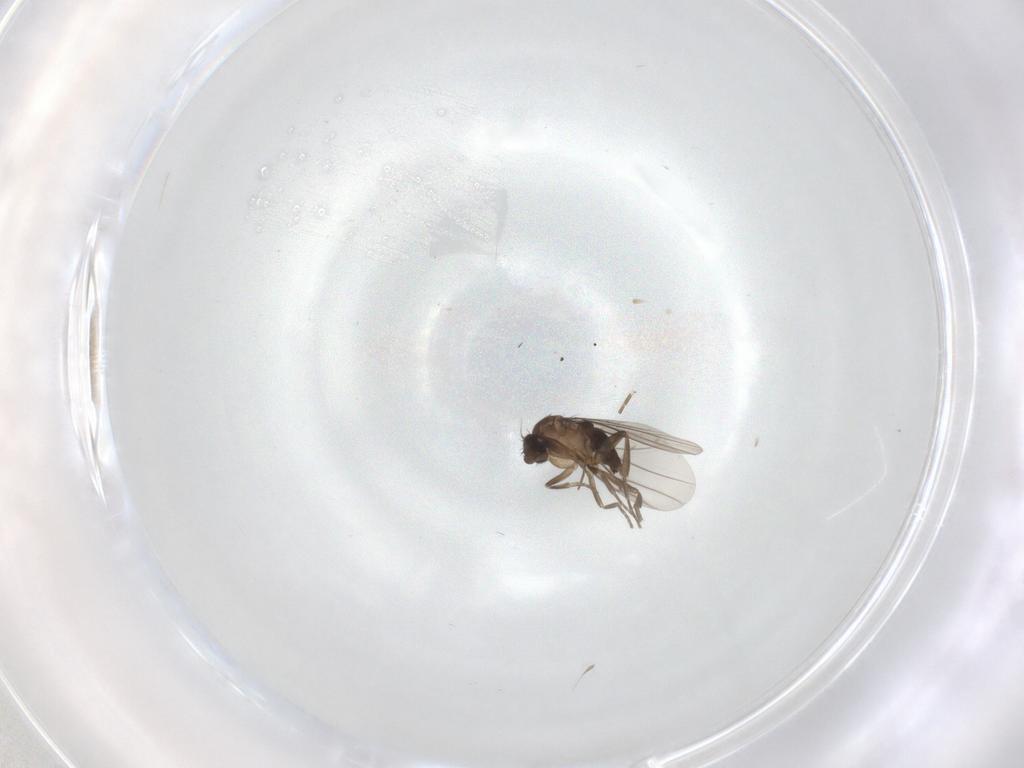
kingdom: Animalia
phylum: Arthropoda
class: Insecta
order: Diptera
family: Chironomidae
